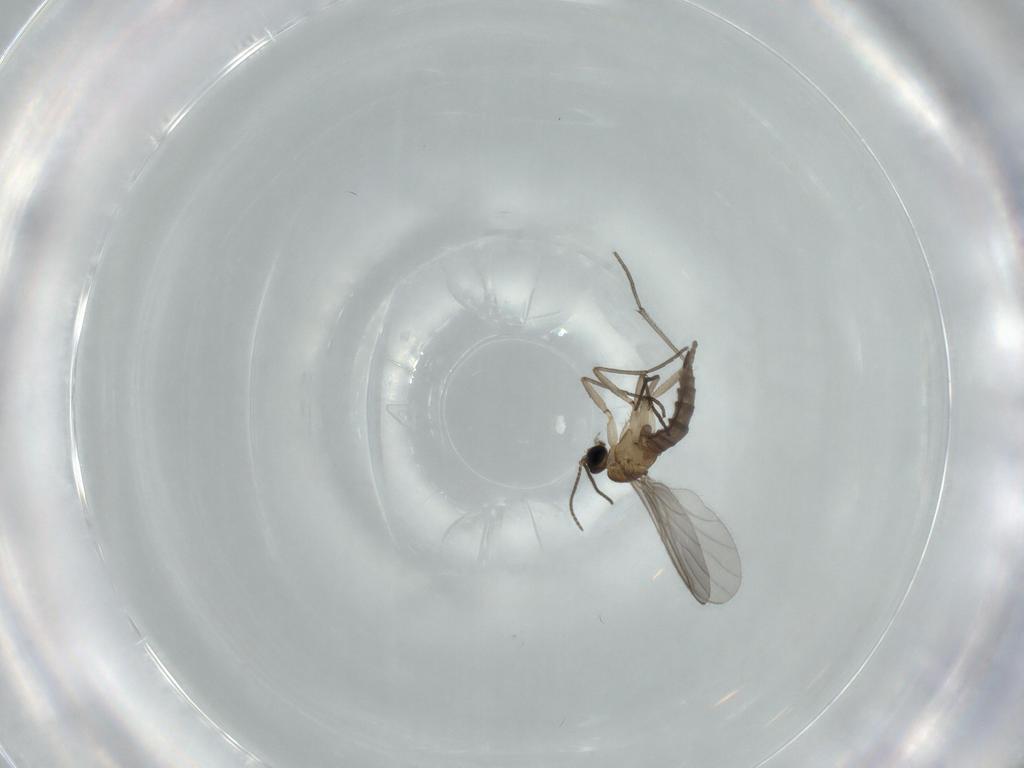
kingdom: Animalia
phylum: Arthropoda
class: Insecta
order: Diptera
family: Sciaridae
